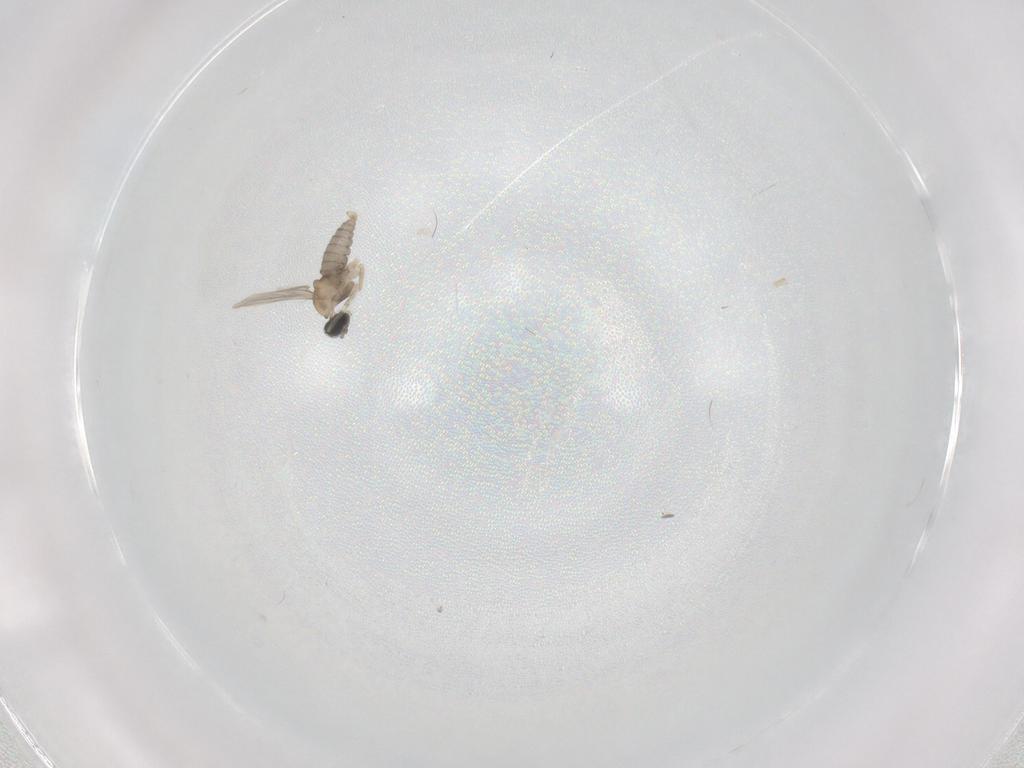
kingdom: Animalia
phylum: Arthropoda
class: Insecta
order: Diptera
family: Cecidomyiidae
